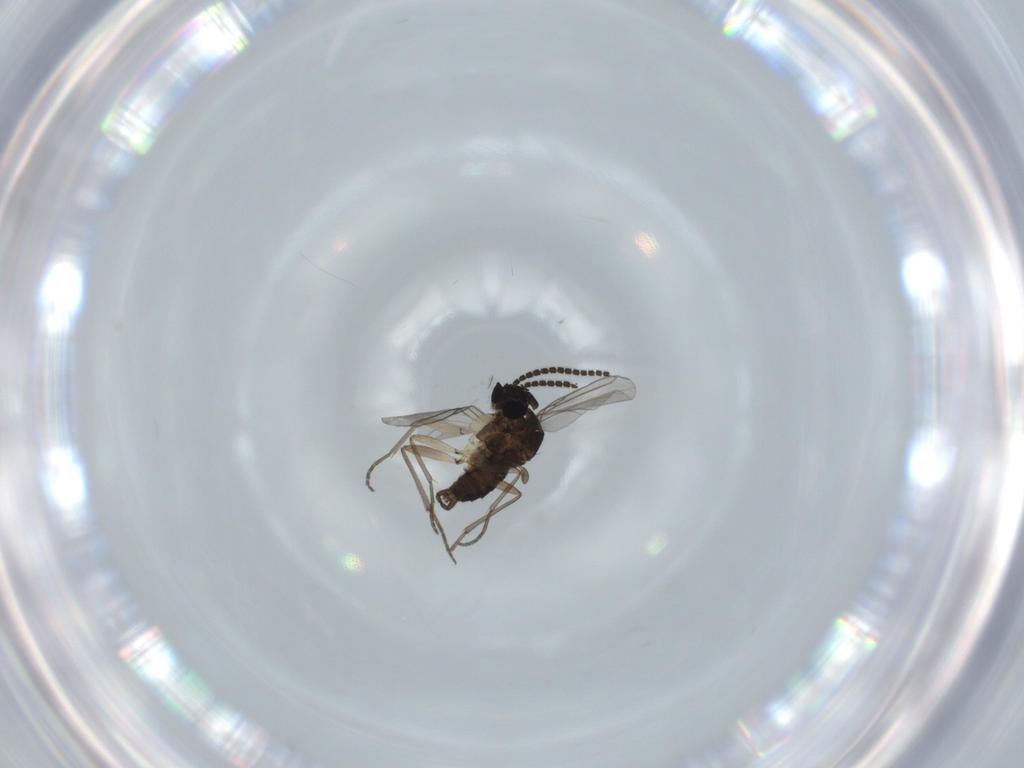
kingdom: Animalia
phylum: Arthropoda
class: Insecta
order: Diptera
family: Sciaridae
